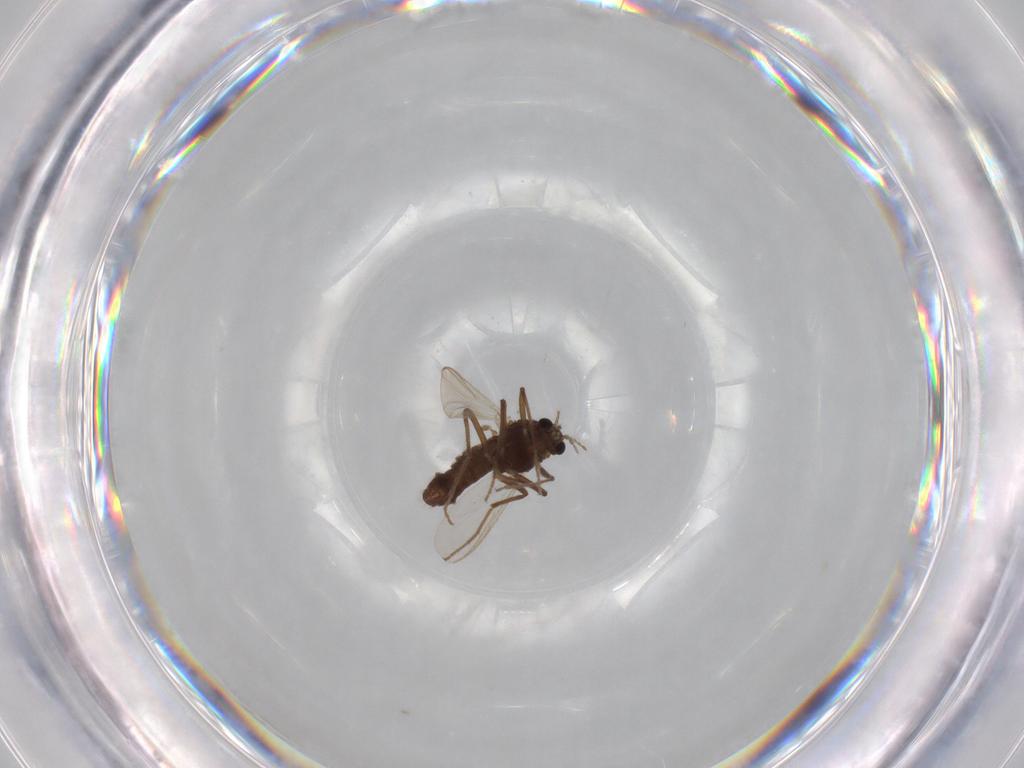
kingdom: Animalia
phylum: Arthropoda
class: Insecta
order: Diptera
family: Chironomidae
